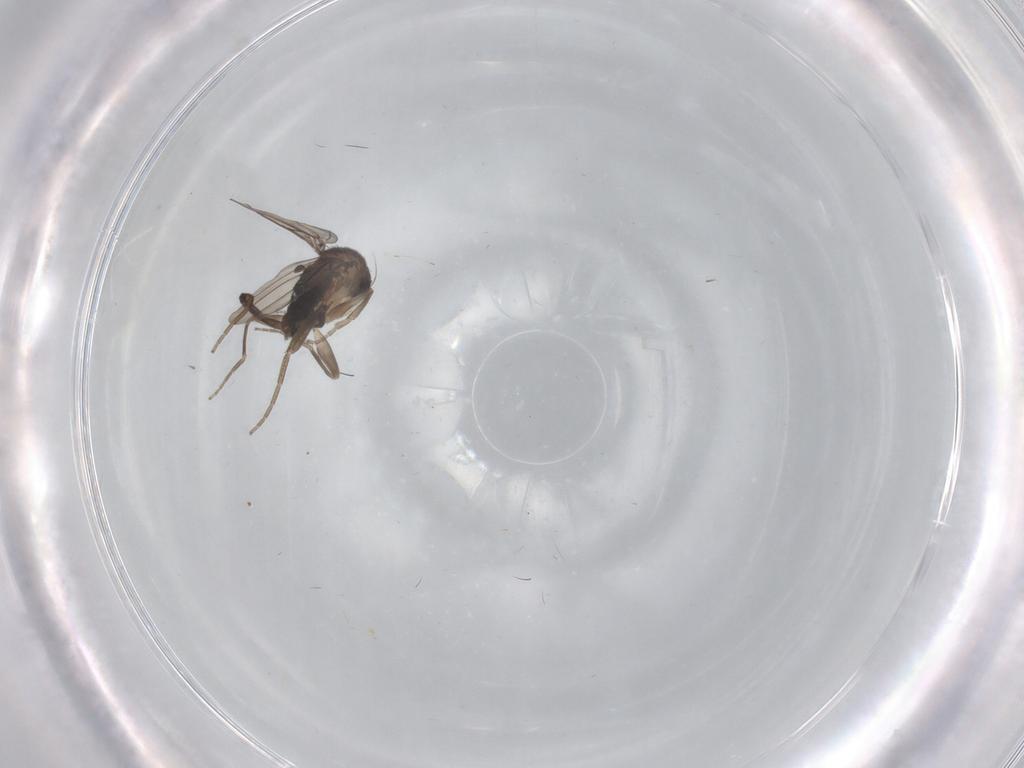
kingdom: Animalia
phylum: Arthropoda
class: Insecta
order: Diptera
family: Phoridae
